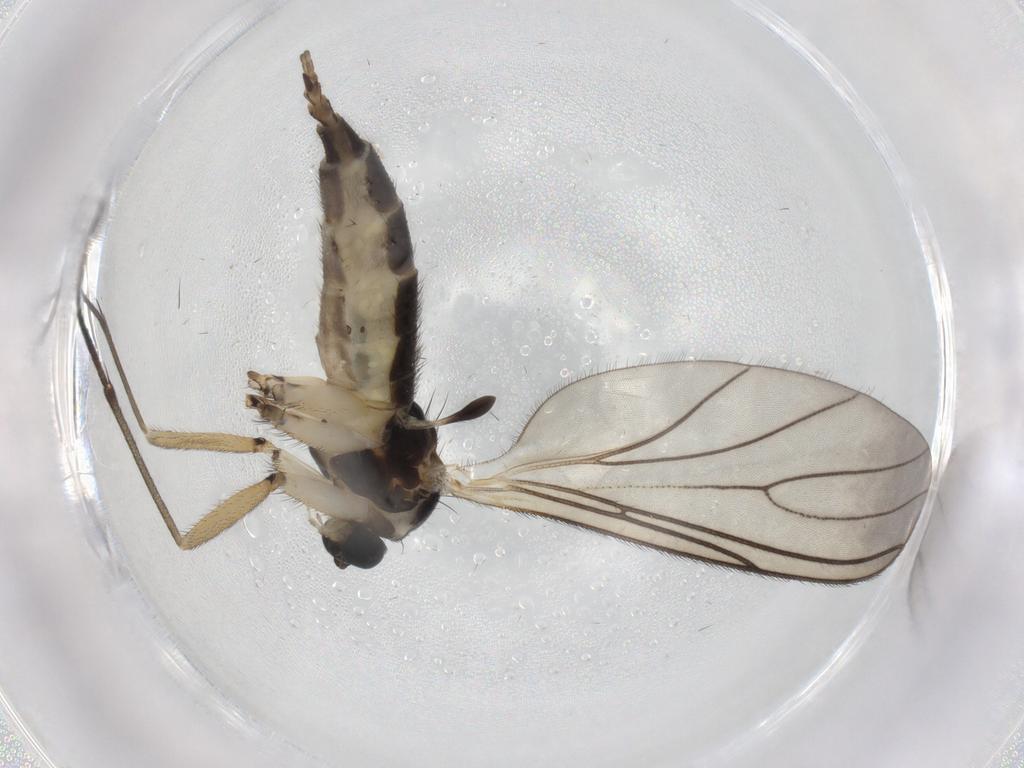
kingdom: Animalia
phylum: Arthropoda
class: Insecta
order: Diptera
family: Sciaridae
